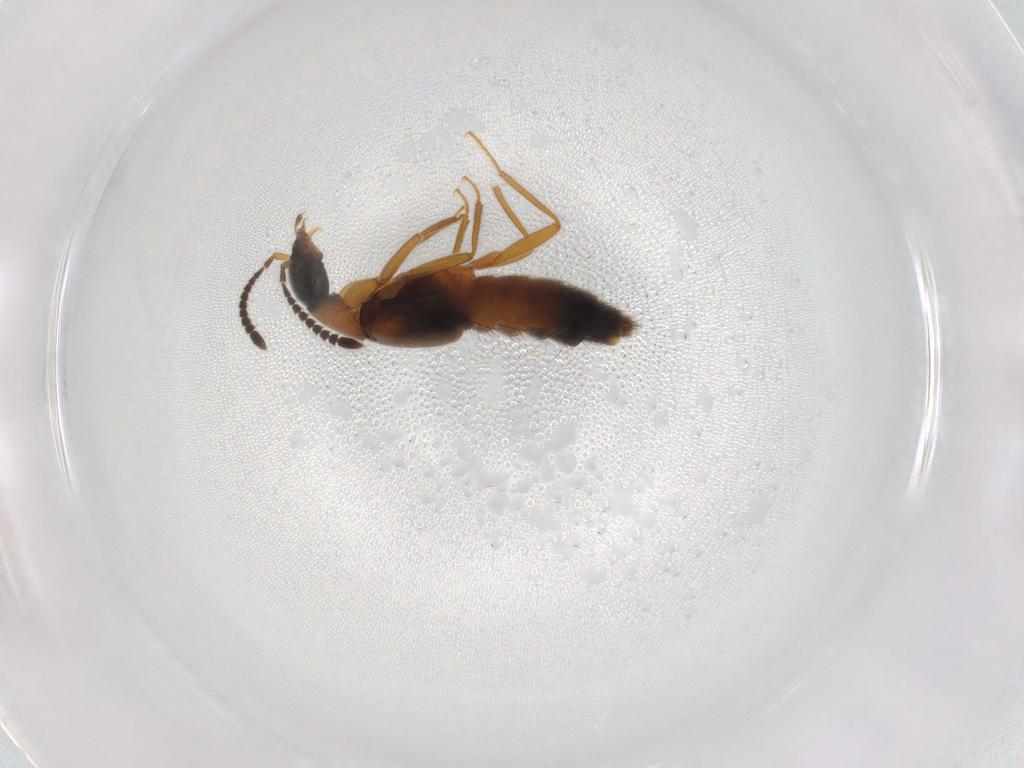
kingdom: Animalia
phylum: Arthropoda
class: Insecta
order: Coleoptera
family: Staphylinidae
